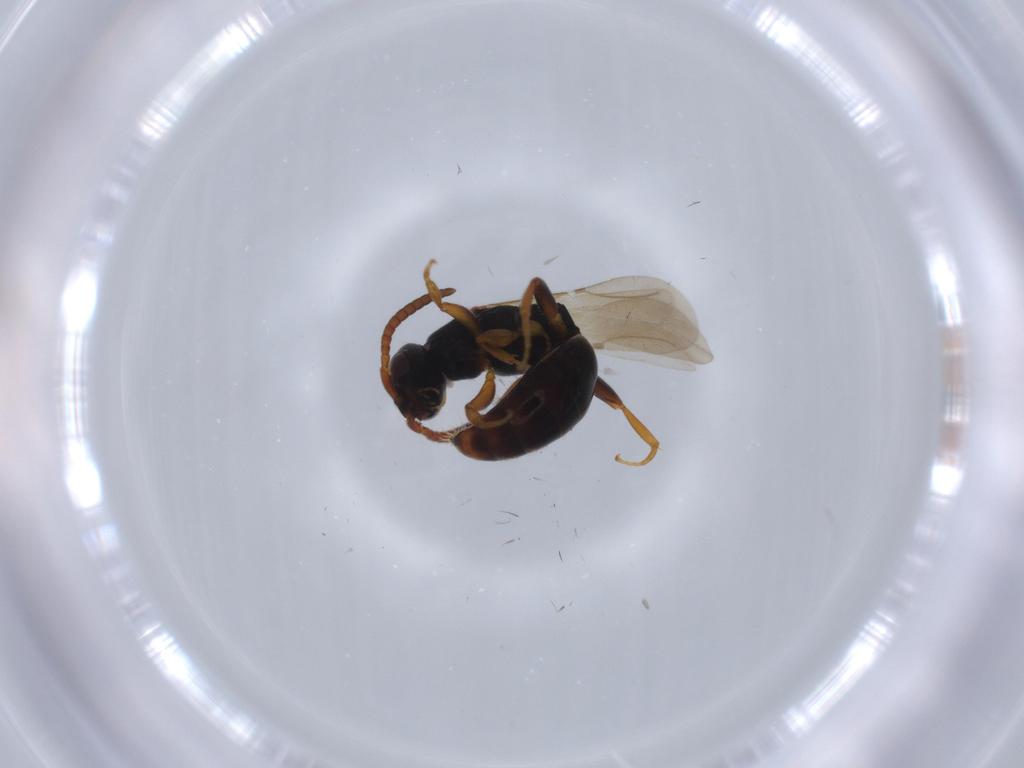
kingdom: Animalia
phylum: Arthropoda
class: Insecta
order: Hymenoptera
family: Bethylidae
